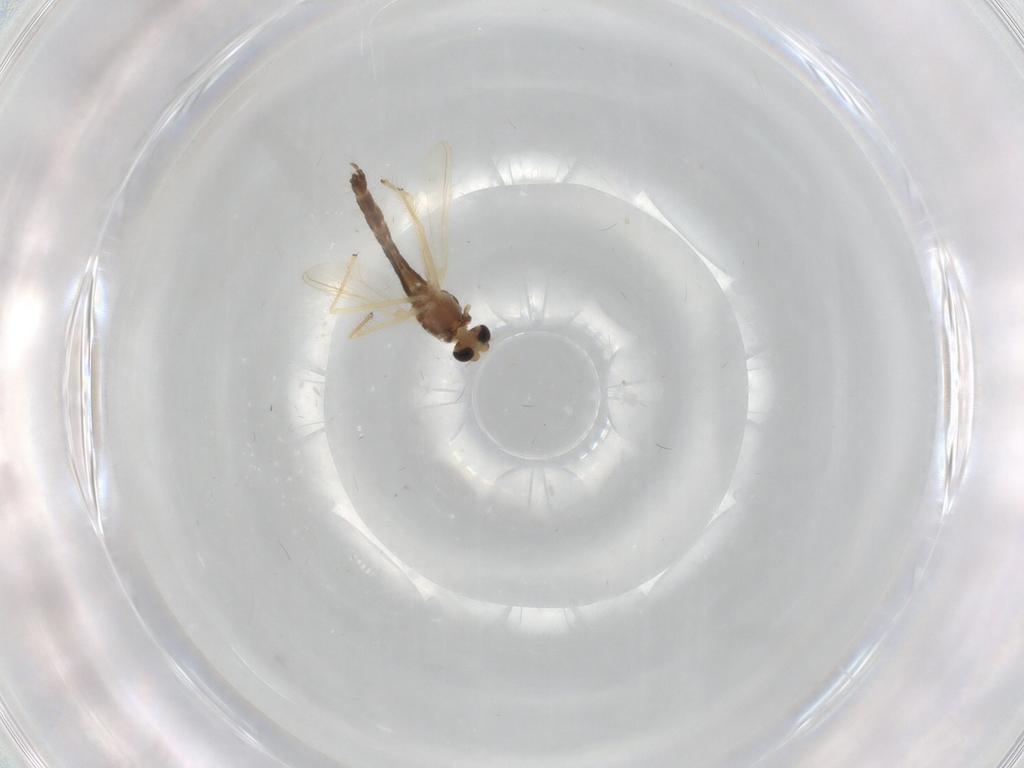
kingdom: Animalia
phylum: Arthropoda
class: Insecta
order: Diptera
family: Chironomidae
